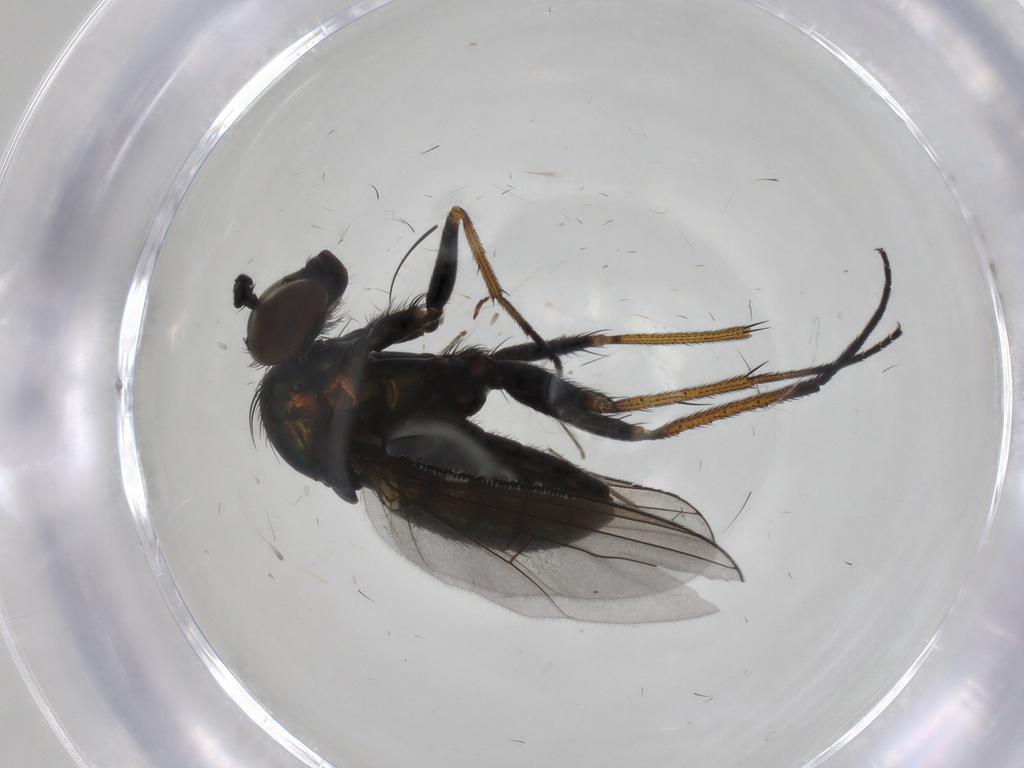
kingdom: Animalia
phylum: Arthropoda
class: Insecta
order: Diptera
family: Dolichopodidae
